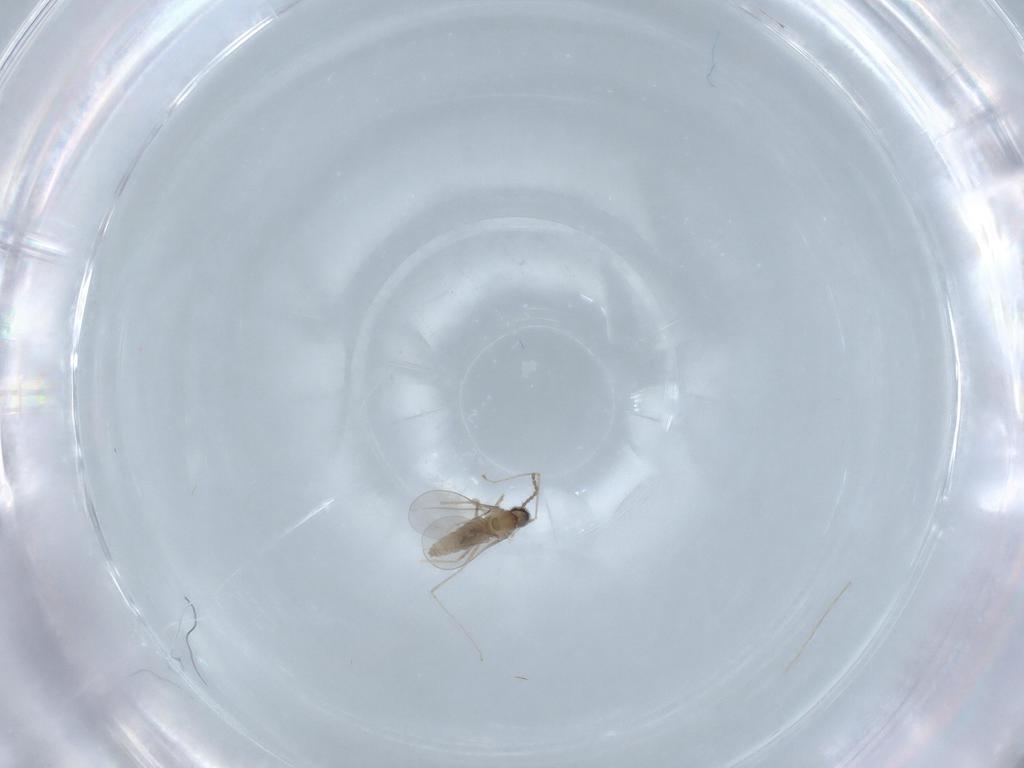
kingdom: Animalia
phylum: Arthropoda
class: Insecta
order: Diptera
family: Cecidomyiidae
